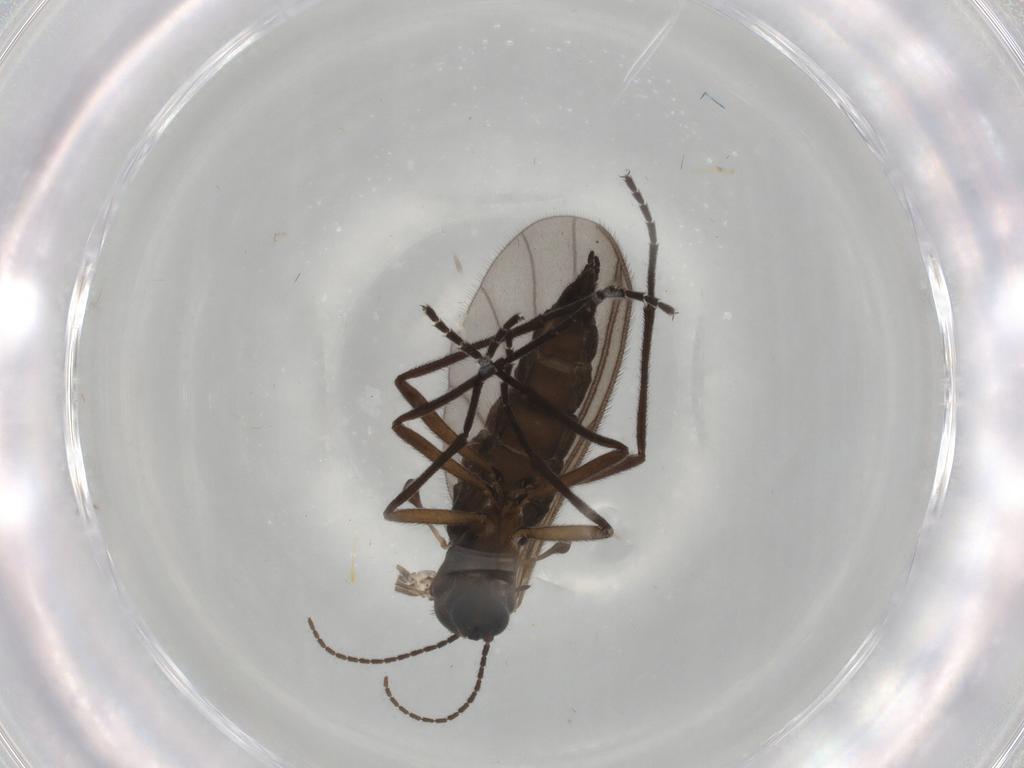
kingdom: Animalia
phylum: Arthropoda
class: Insecta
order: Diptera
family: Sciaridae
